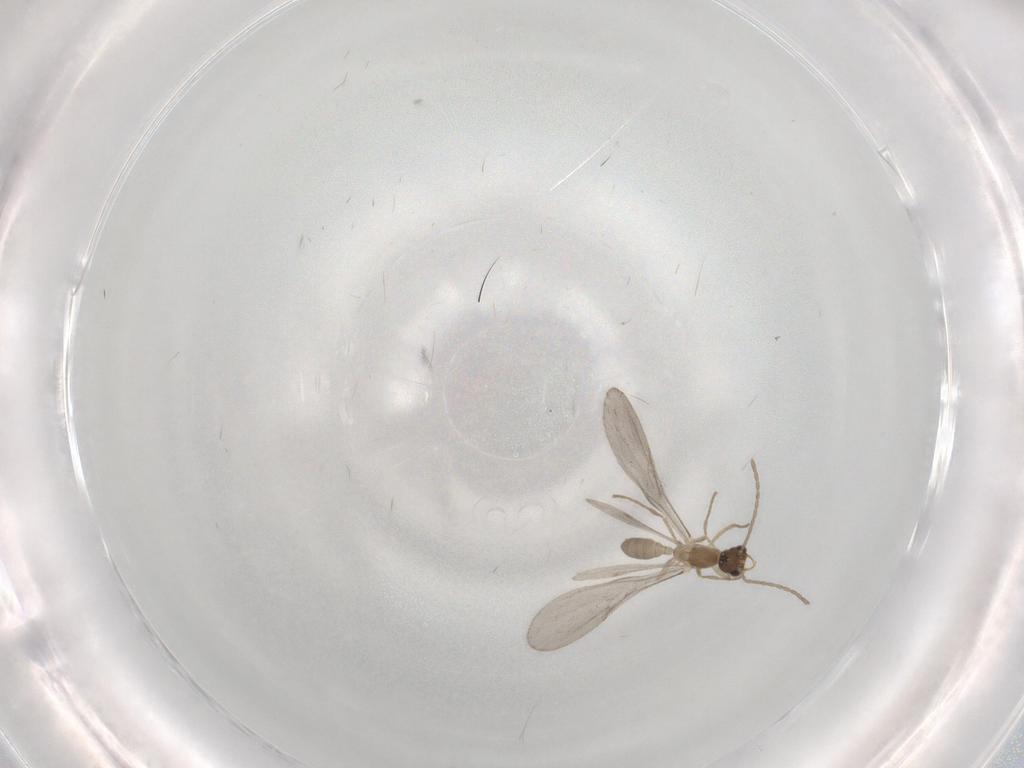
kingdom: Animalia
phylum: Arthropoda
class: Insecta
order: Hymenoptera
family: Formicidae
